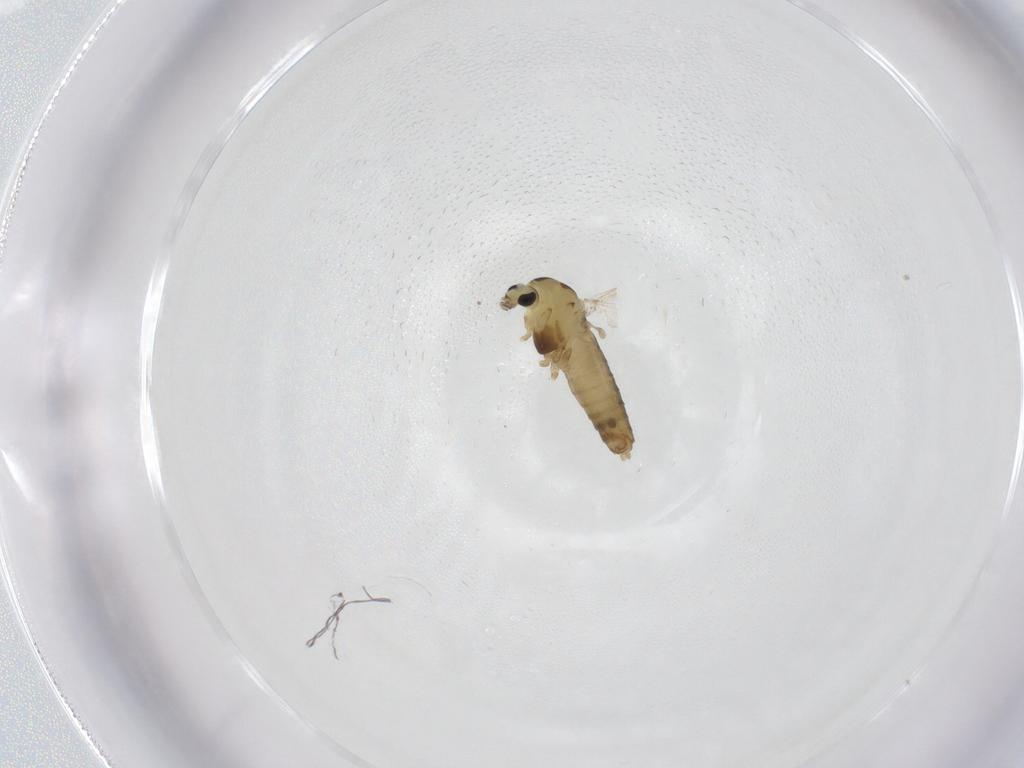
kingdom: Animalia
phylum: Arthropoda
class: Insecta
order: Diptera
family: Chironomidae
